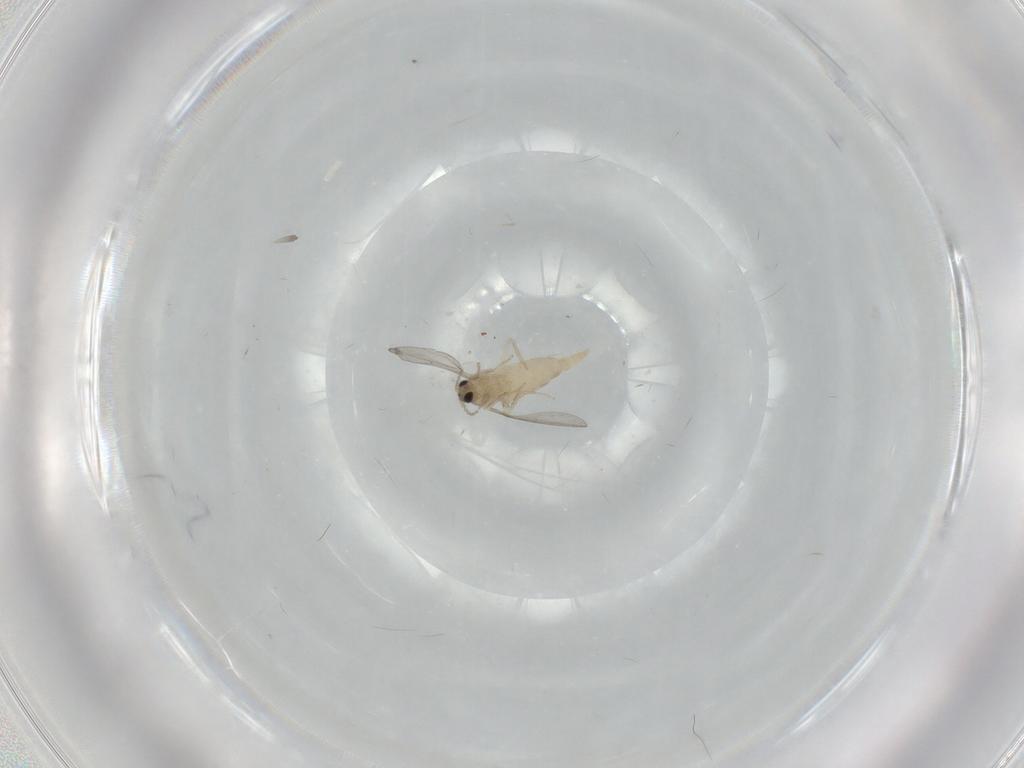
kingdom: Animalia
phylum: Arthropoda
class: Insecta
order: Diptera
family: Cecidomyiidae
